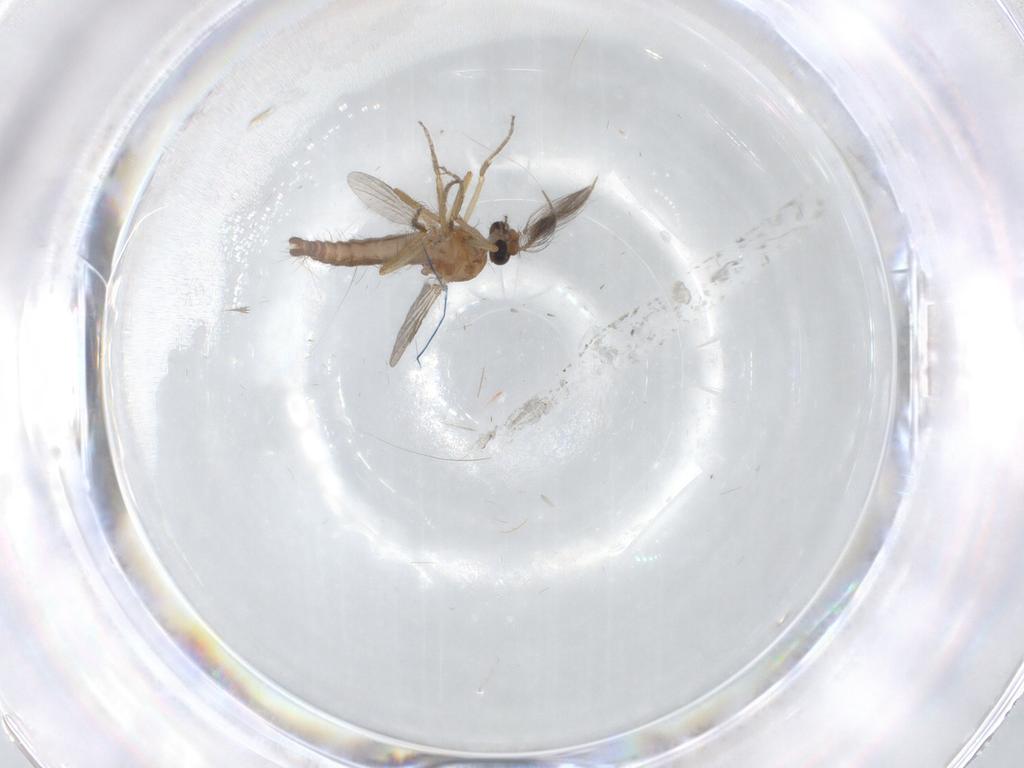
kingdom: Animalia
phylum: Arthropoda
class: Insecta
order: Diptera
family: Ceratopogonidae
